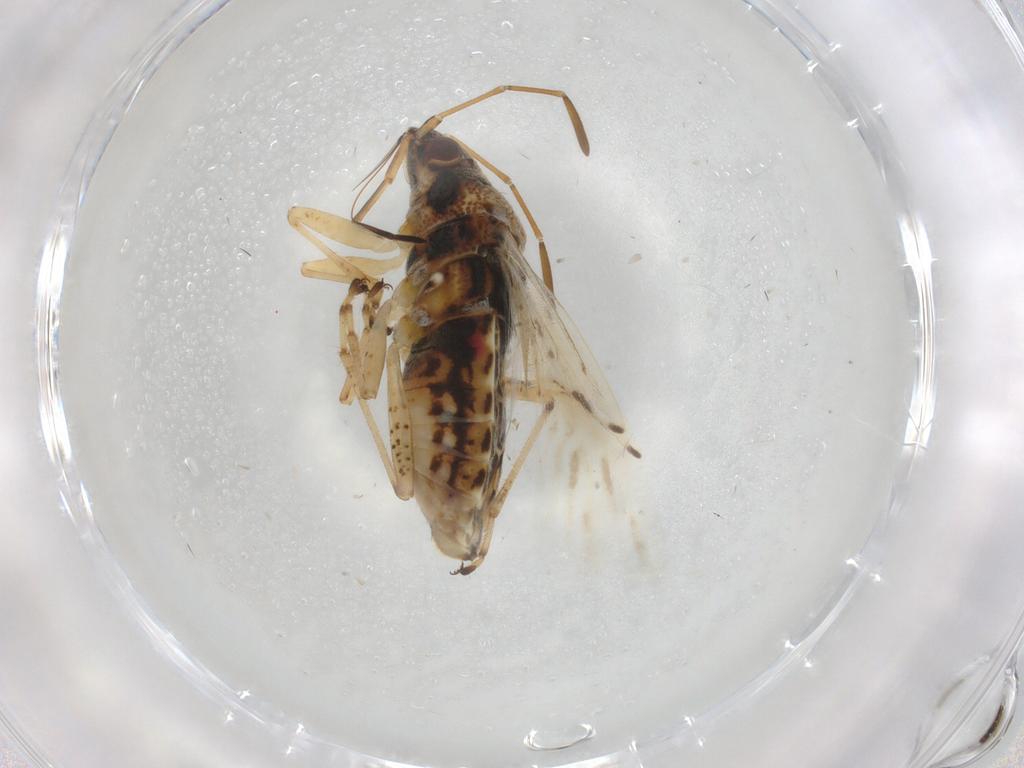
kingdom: Animalia
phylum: Arthropoda
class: Insecta
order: Hemiptera
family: Lygaeidae
